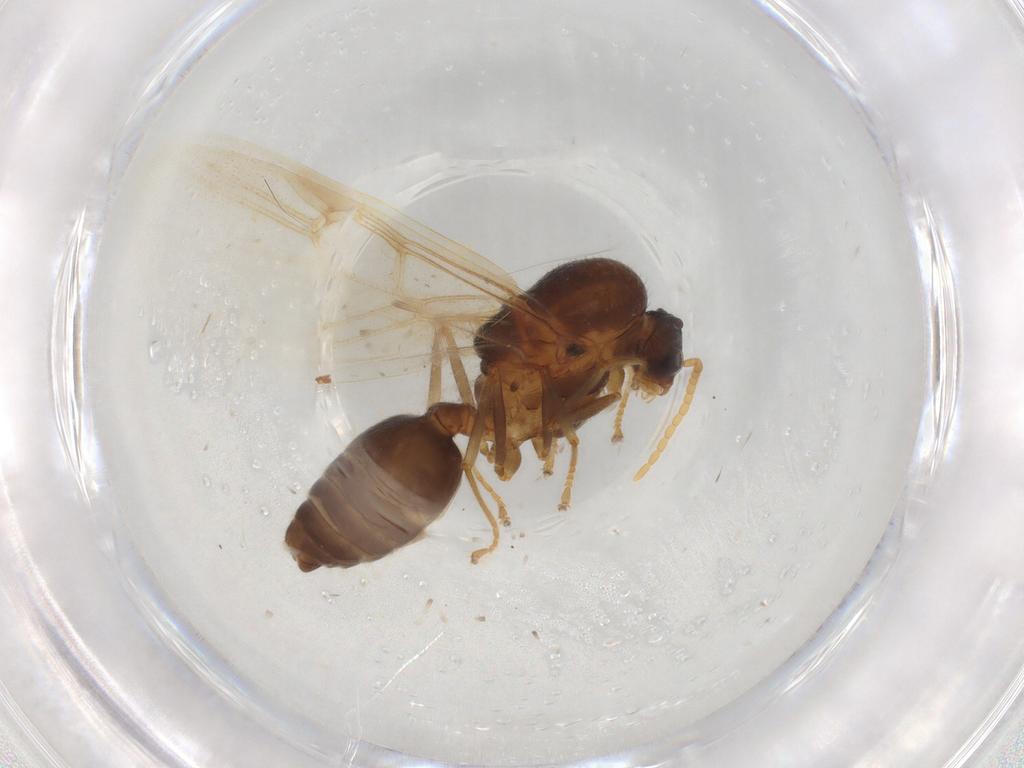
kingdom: Animalia
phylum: Arthropoda
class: Insecta
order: Hymenoptera
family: Formicidae
